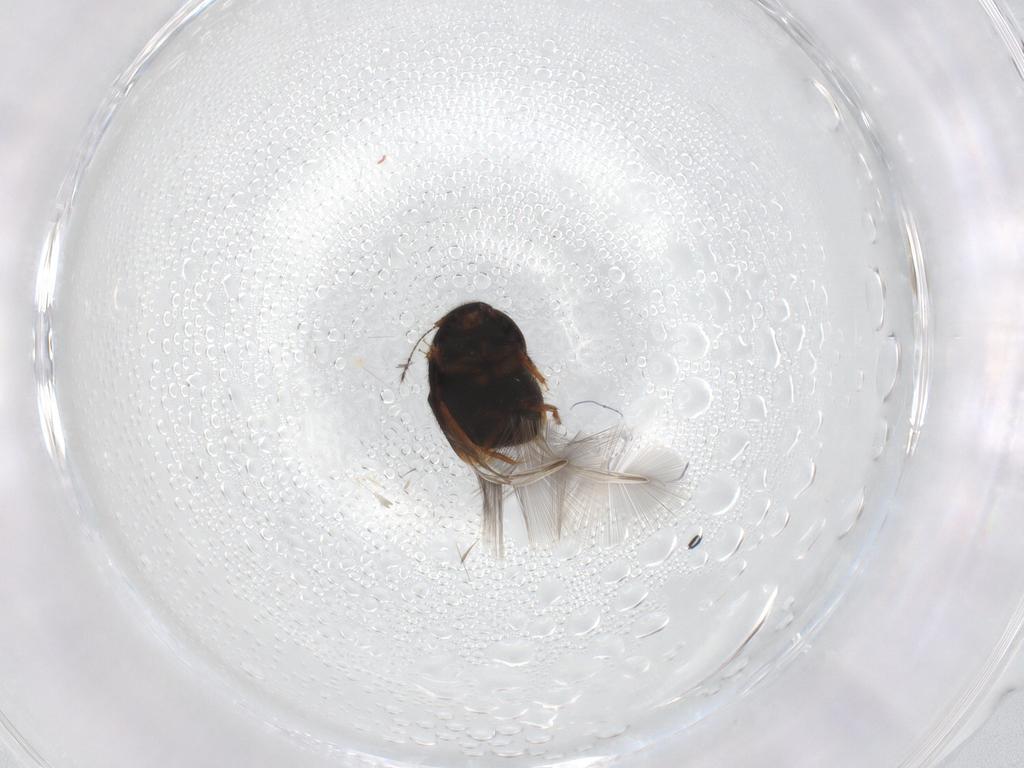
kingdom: Animalia
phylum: Arthropoda
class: Insecta
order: Coleoptera
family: Ptiliidae
